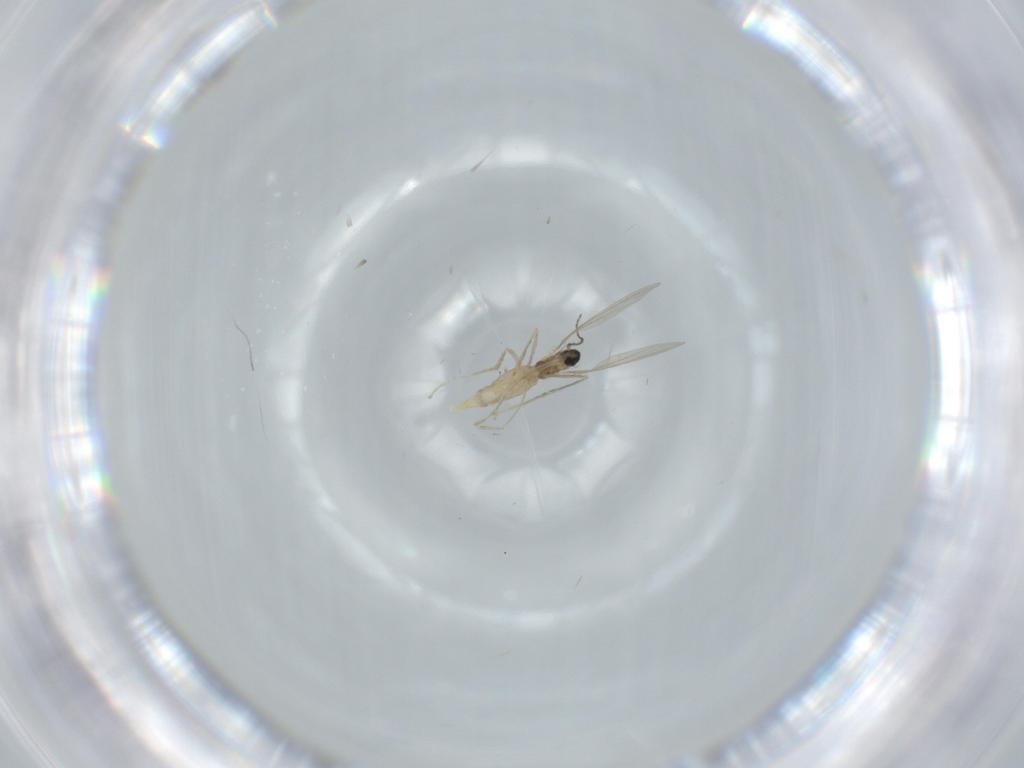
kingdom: Animalia
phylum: Arthropoda
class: Insecta
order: Diptera
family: Cecidomyiidae
